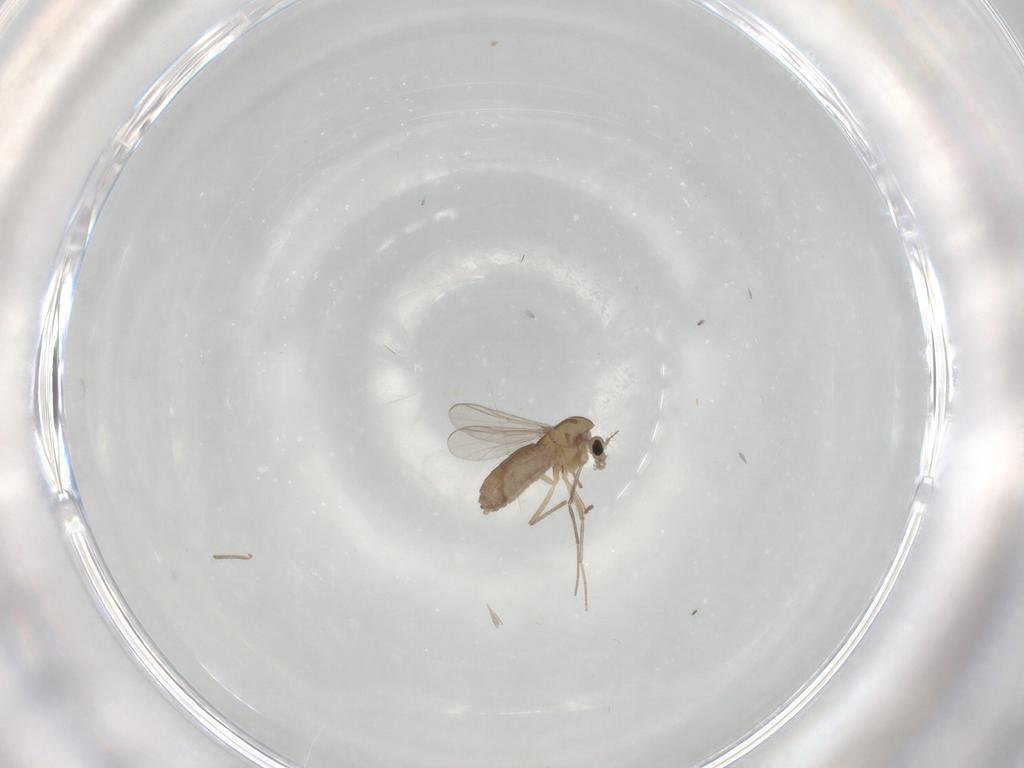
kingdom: Animalia
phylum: Arthropoda
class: Insecta
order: Diptera
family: Chironomidae
